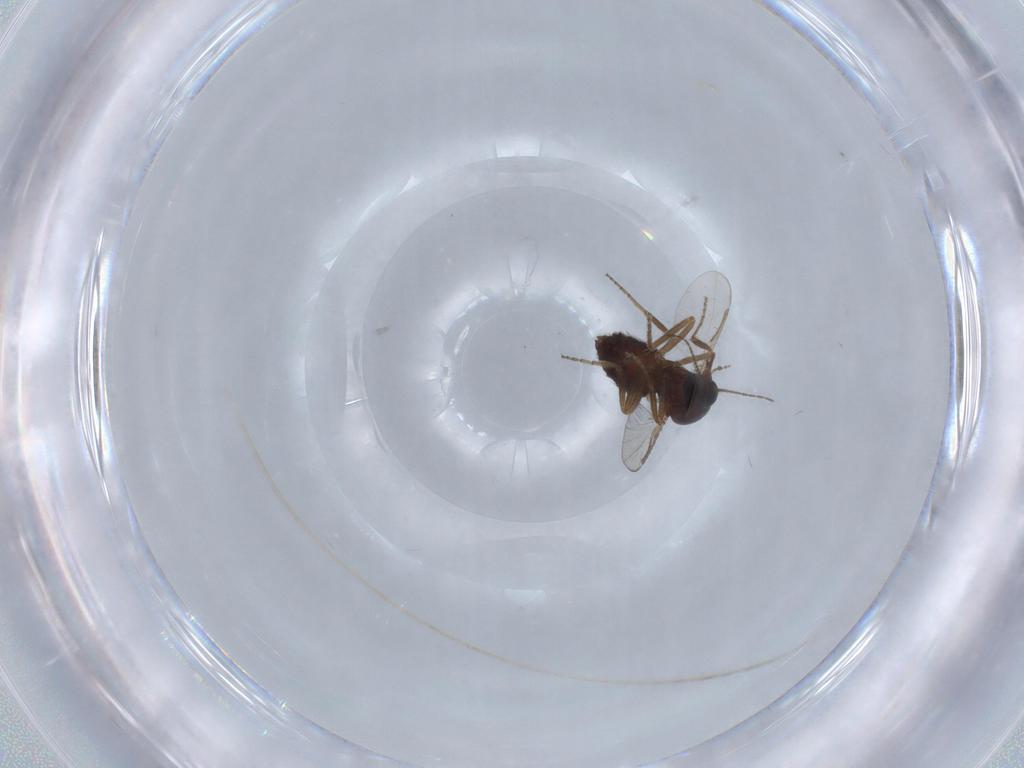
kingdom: Animalia
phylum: Arthropoda
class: Insecta
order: Diptera
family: Ceratopogonidae
